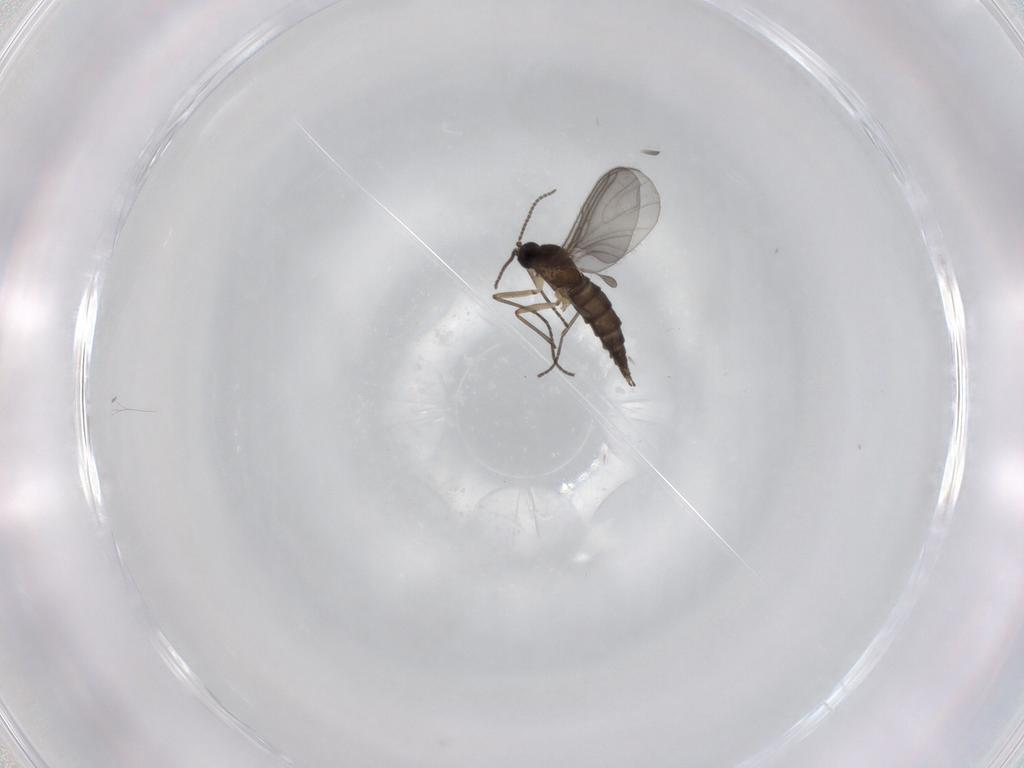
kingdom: Animalia
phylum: Arthropoda
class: Insecta
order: Diptera
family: Sciaridae
